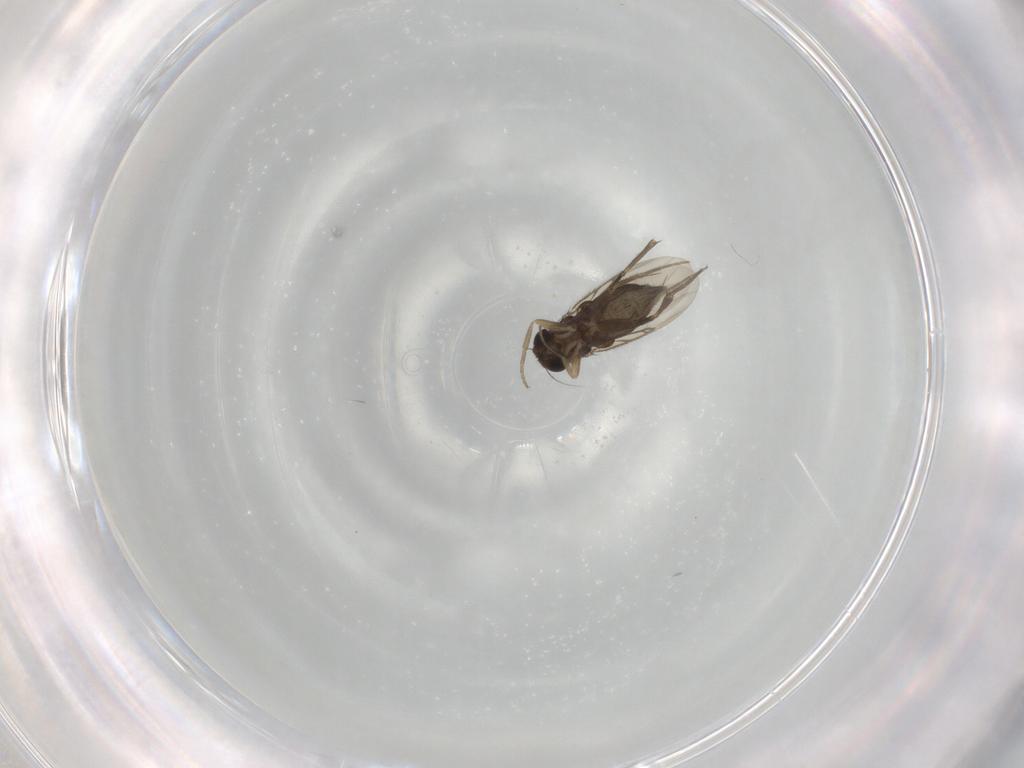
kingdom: Animalia
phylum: Arthropoda
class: Insecta
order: Diptera
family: Phoridae
